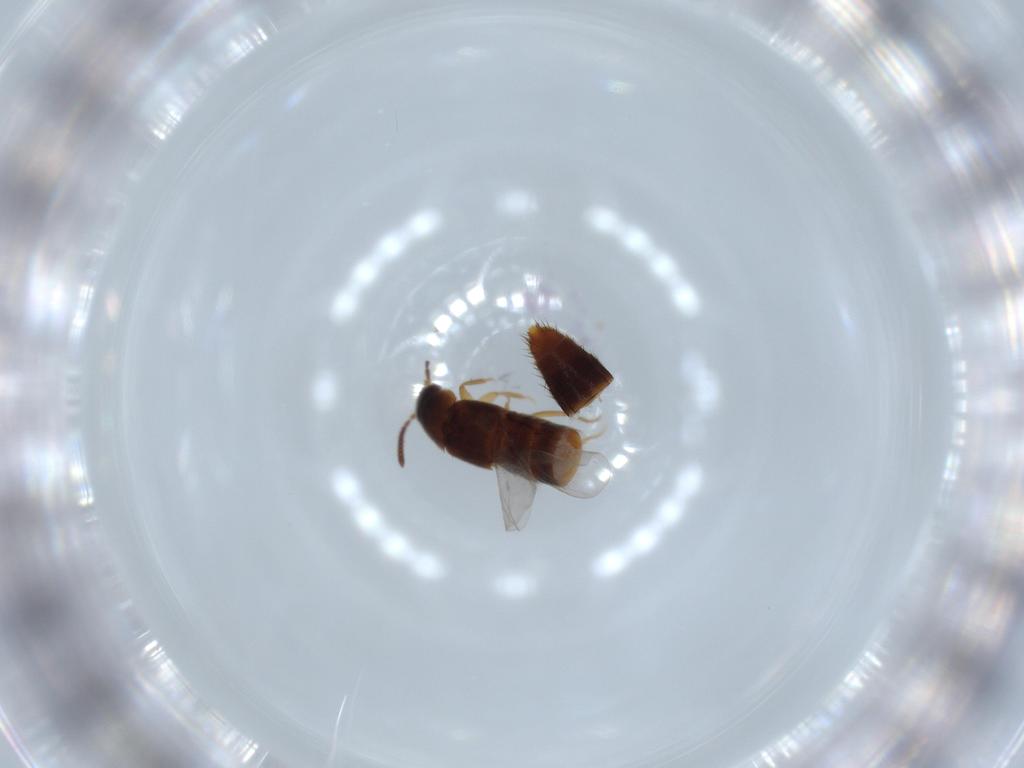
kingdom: Animalia
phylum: Arthropoda
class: Insecta
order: Coleoptera
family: Staphylinidae
